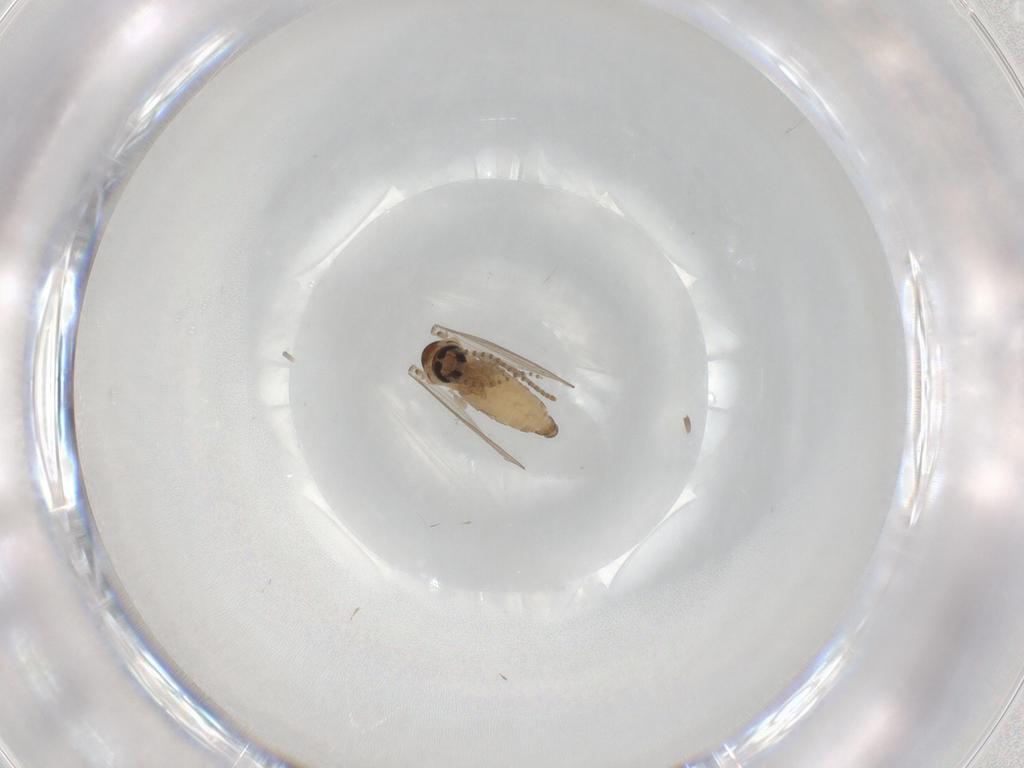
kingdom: Animalia
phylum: Arthropoda
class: Insecta
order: Diptera
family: Psychodidae
